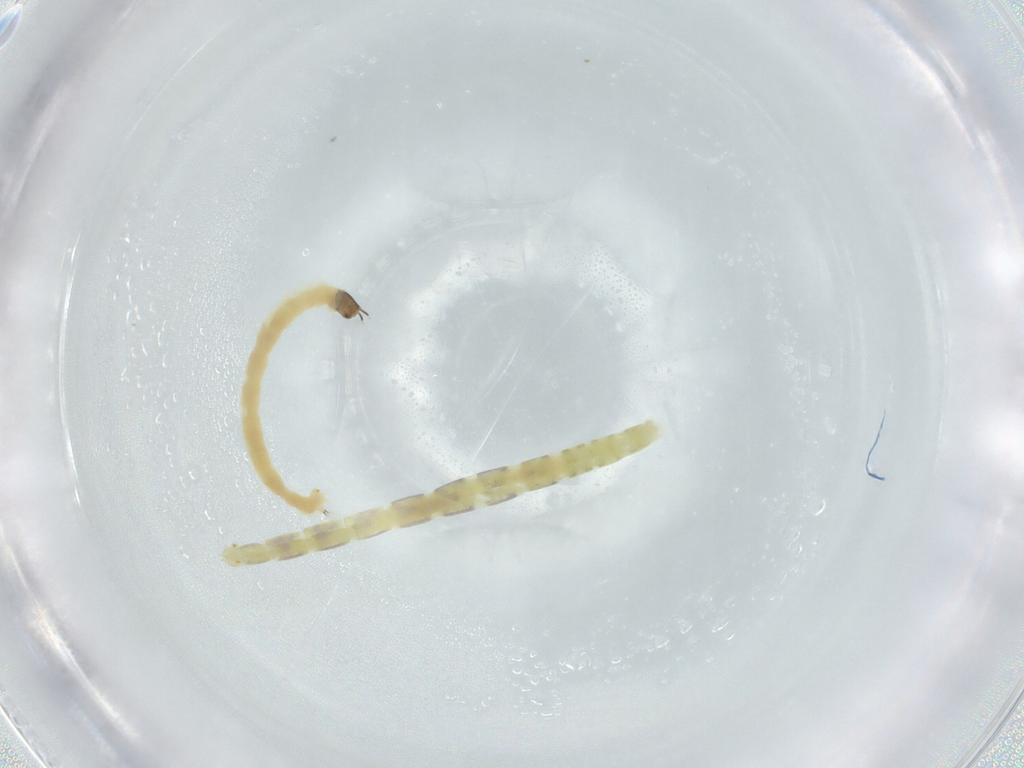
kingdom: Animalia
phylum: Arthropoda
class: Insecta
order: Diptera
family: Chironomidae
